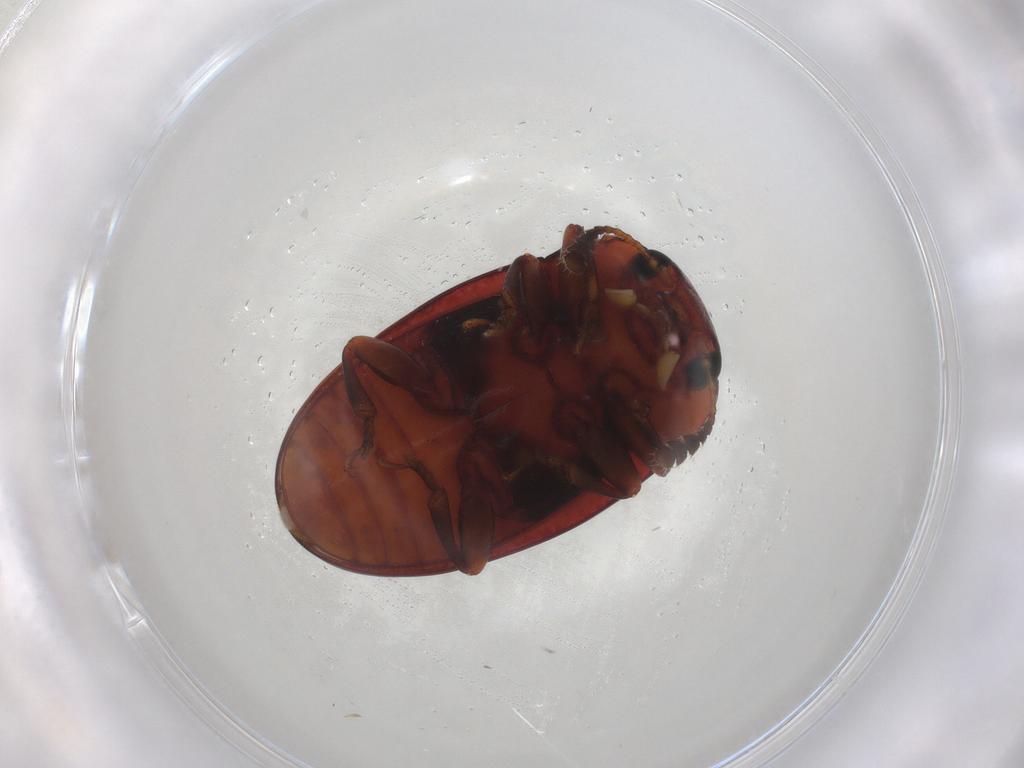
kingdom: Animalia
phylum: Arthropoda
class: Insecta
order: Coleoptera
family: Erotylidae
